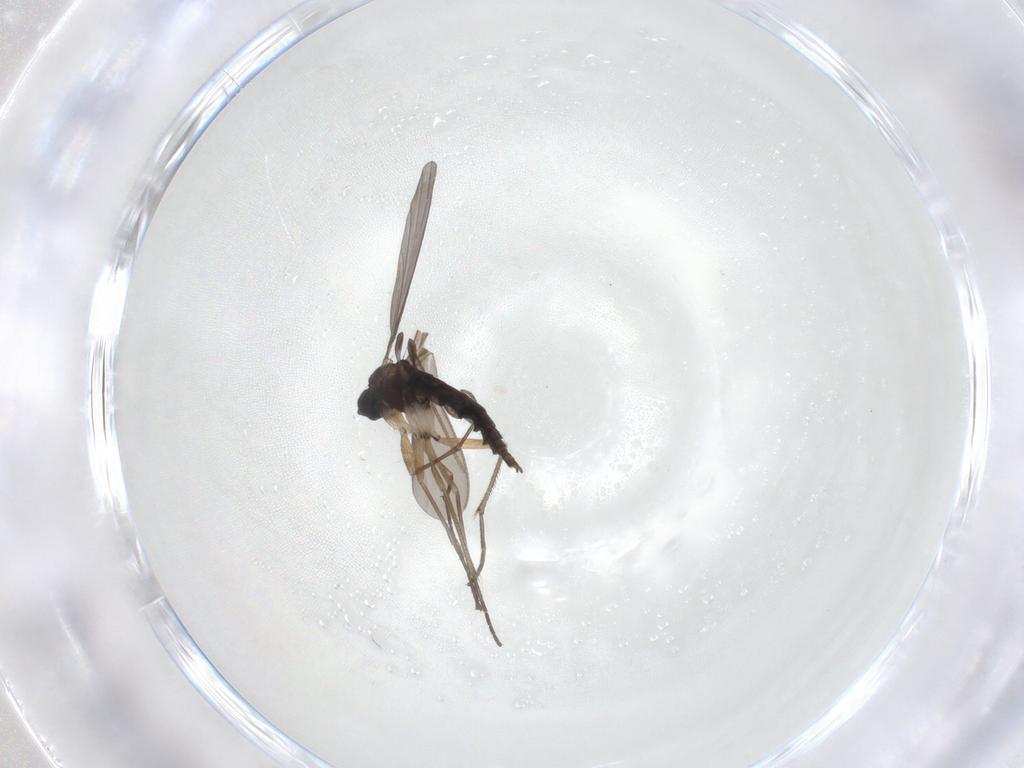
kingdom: Animalia
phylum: Arthropoda
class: Insecta
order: Diptera
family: Sciaridae
